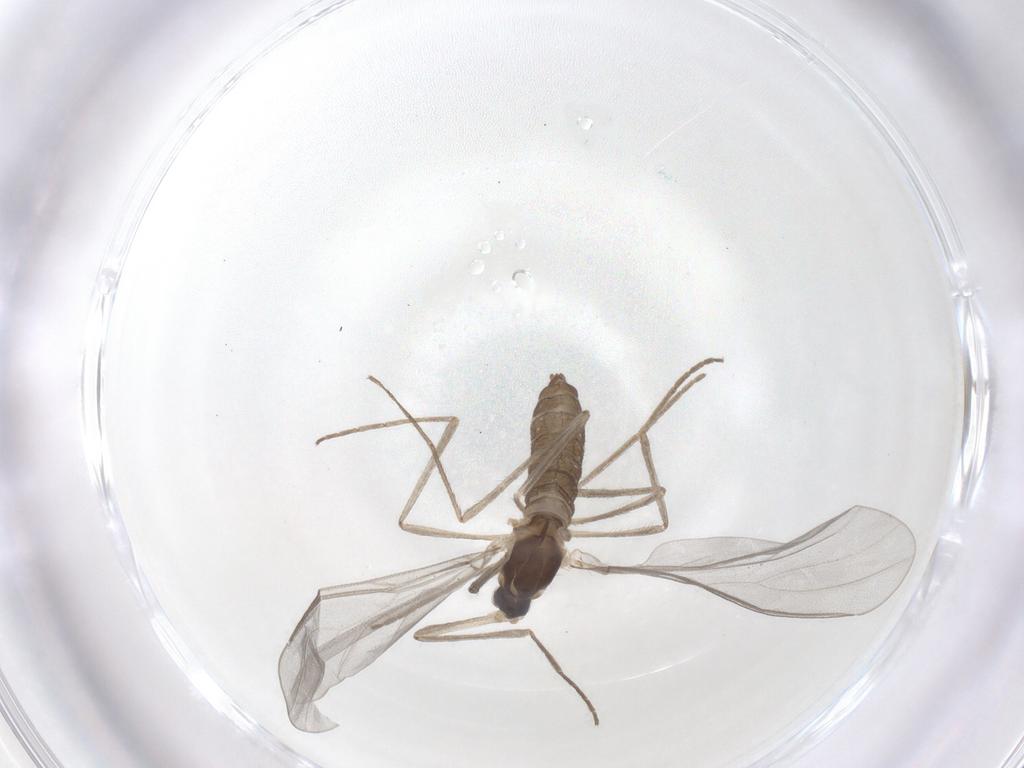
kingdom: Animalia
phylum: Arthropoda
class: Insecta
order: Diptera
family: Cecidomyiidae
